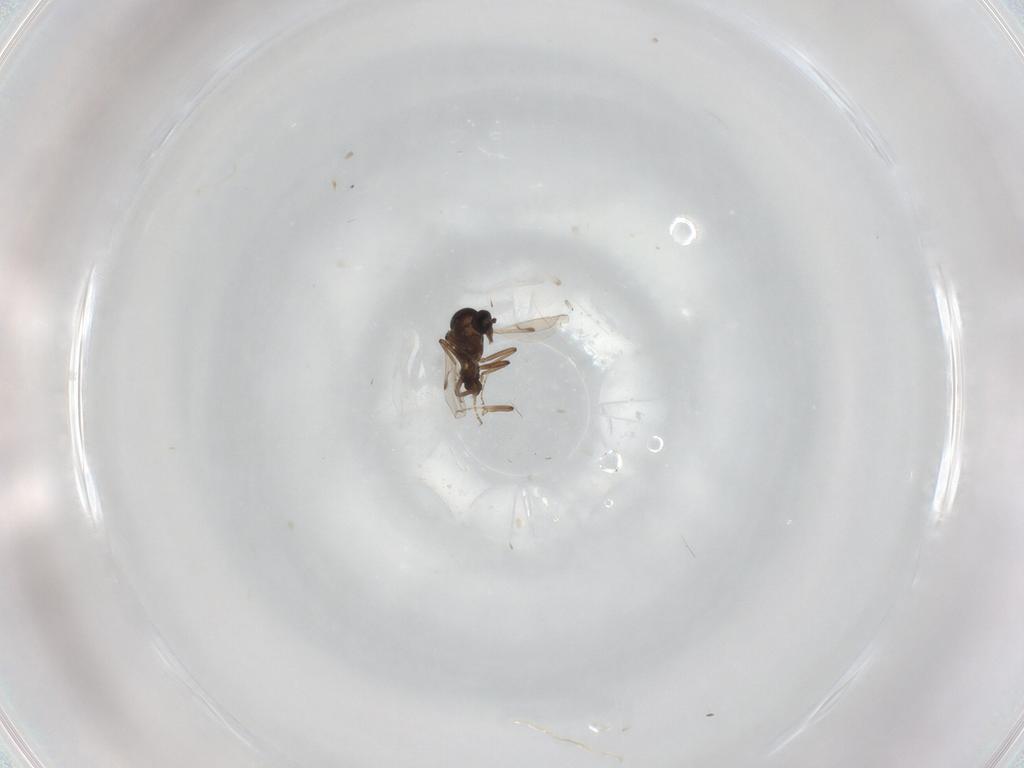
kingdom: Animalia
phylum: Arthropoda
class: Insecta
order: Diptera
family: Ceratopogonidae
